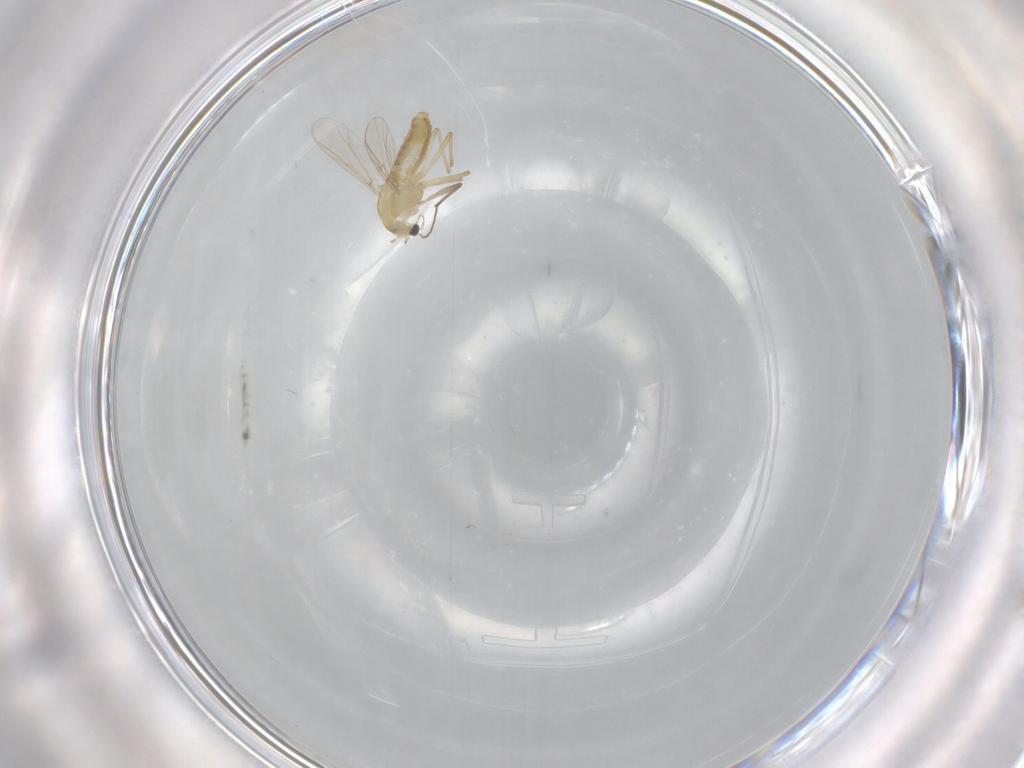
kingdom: Animalia
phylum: Arthropoda
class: Insecta
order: Diptera
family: Chironomidae
